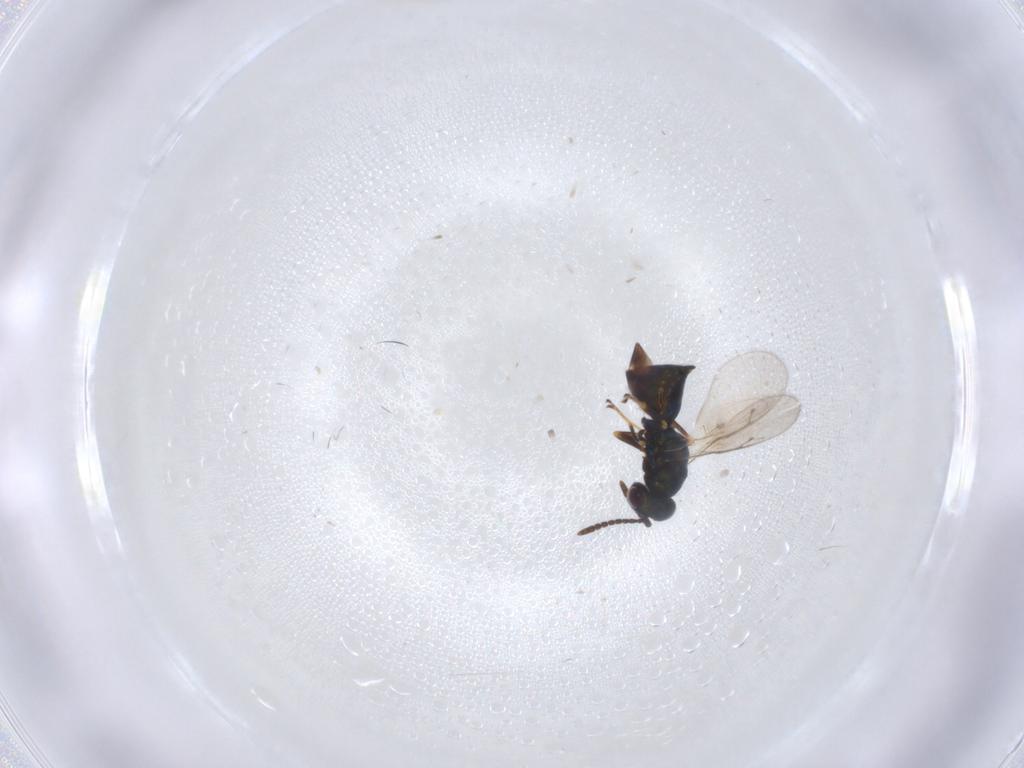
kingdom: Animalia
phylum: Arthropoda
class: Insecta
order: Hymenoptera
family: Pteromalidae
